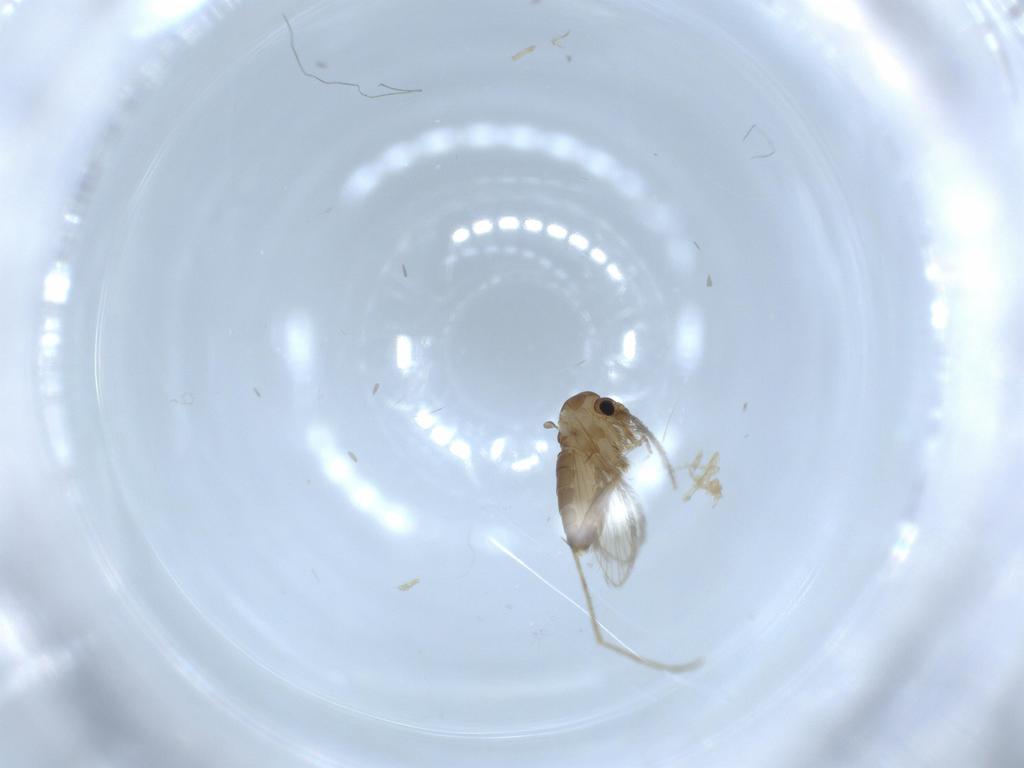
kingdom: Animalia
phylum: Arthropoda
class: Insecta
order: Diptera
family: Psychodidae
